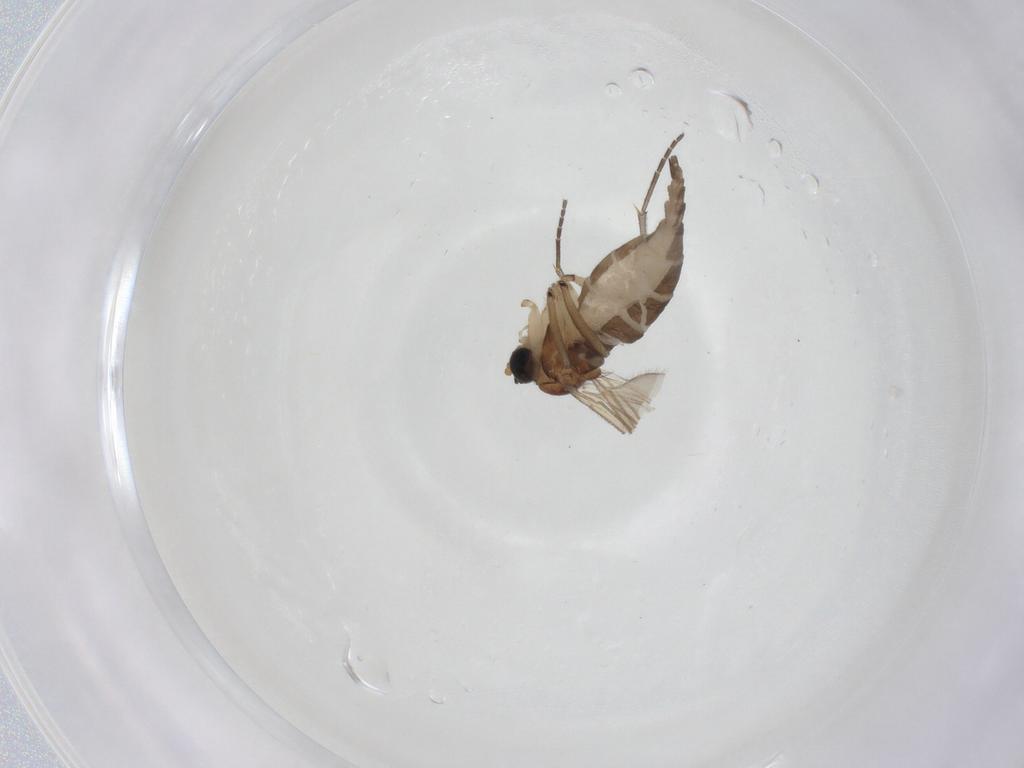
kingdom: Animalia
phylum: Arthropoda
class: Insecta
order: Diptera
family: Sciaridae
